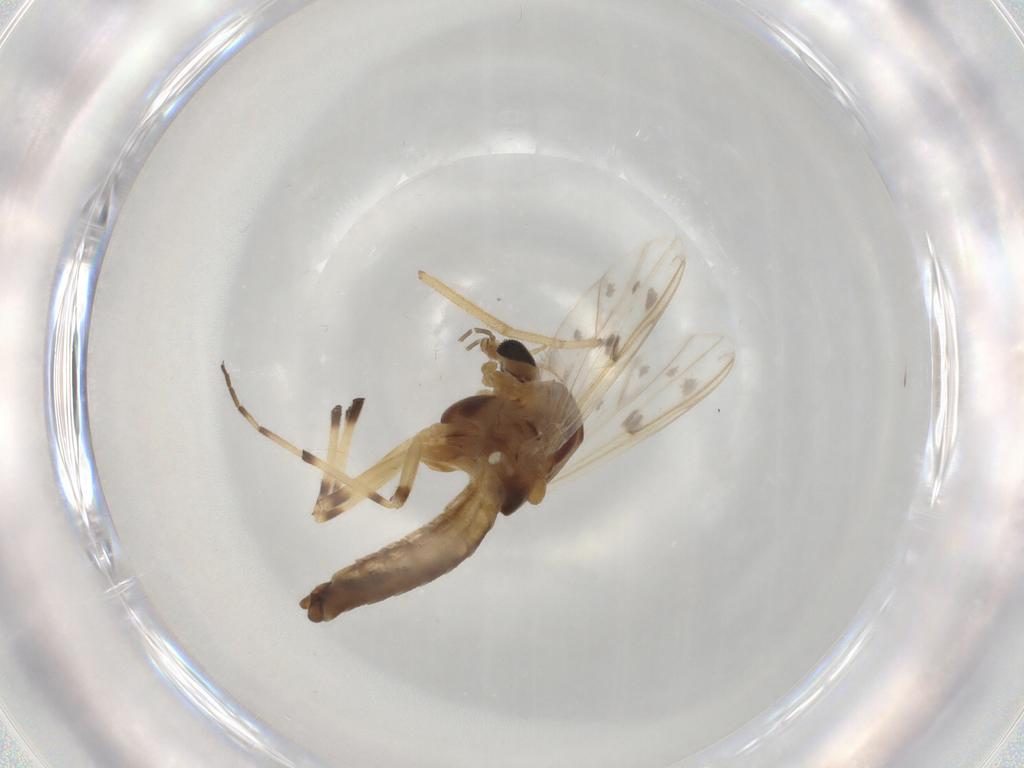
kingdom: Animalia
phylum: Arthropoda
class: Insecta
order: Diptera
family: Chironomidae
